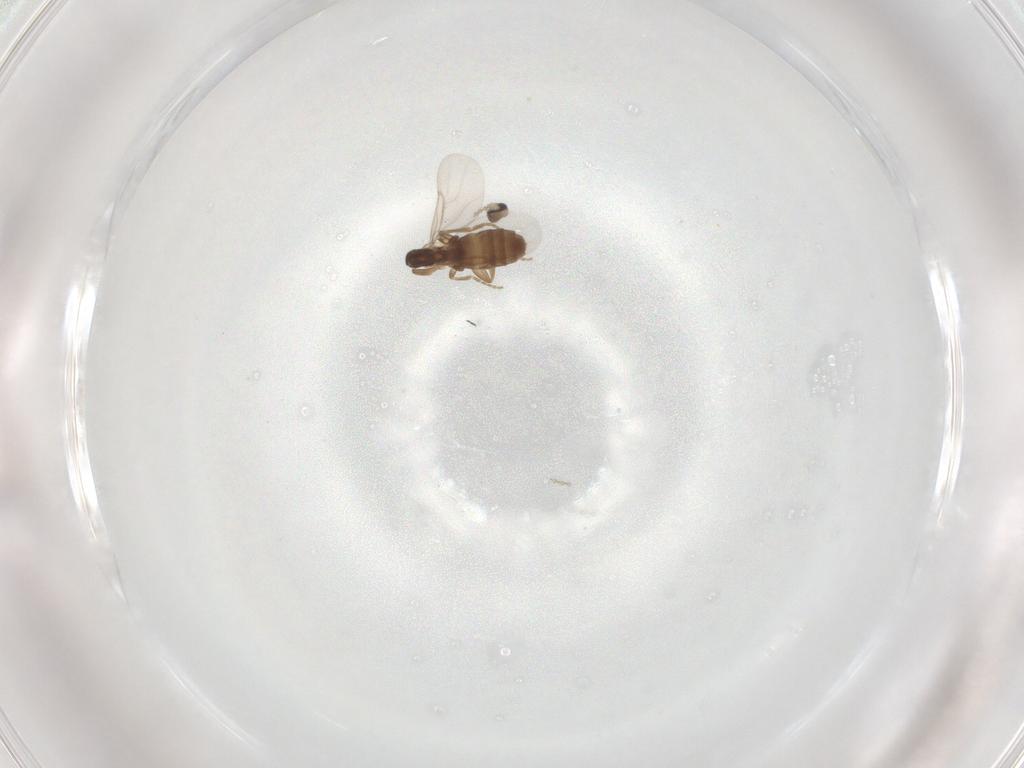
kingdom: Animalia
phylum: Arthropoda
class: Insecta
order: Diptera
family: Cecidomyiidae
